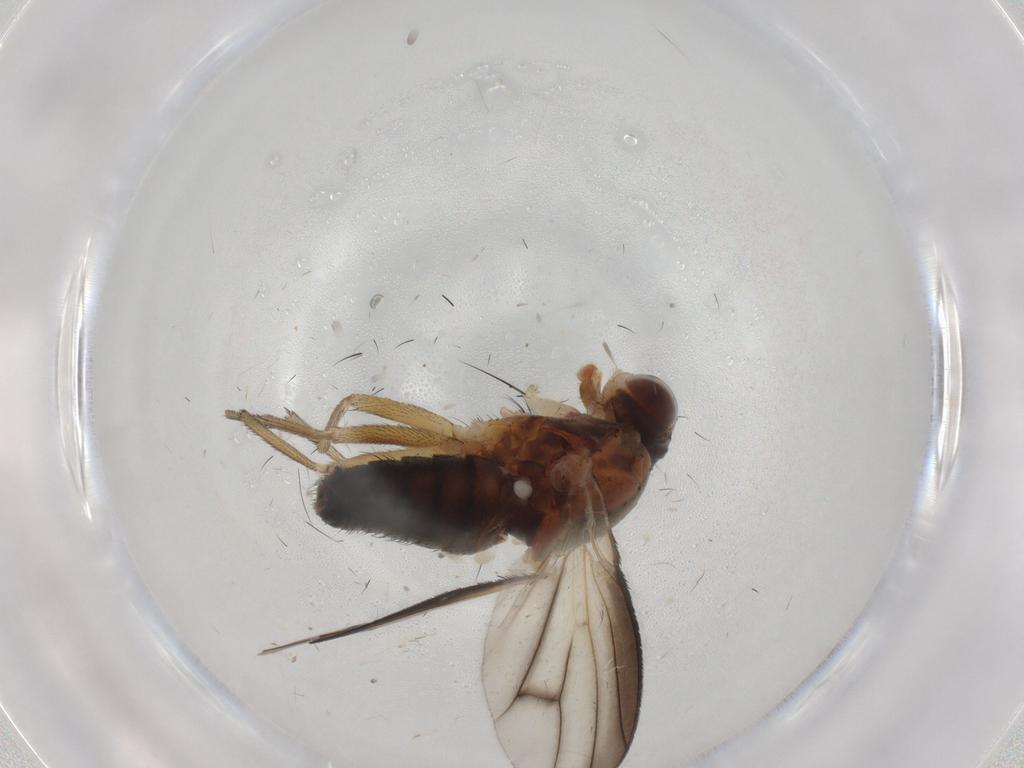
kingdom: Animalia
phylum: Arthropoda
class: Insecta
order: Diptera
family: Heleomyzidae
